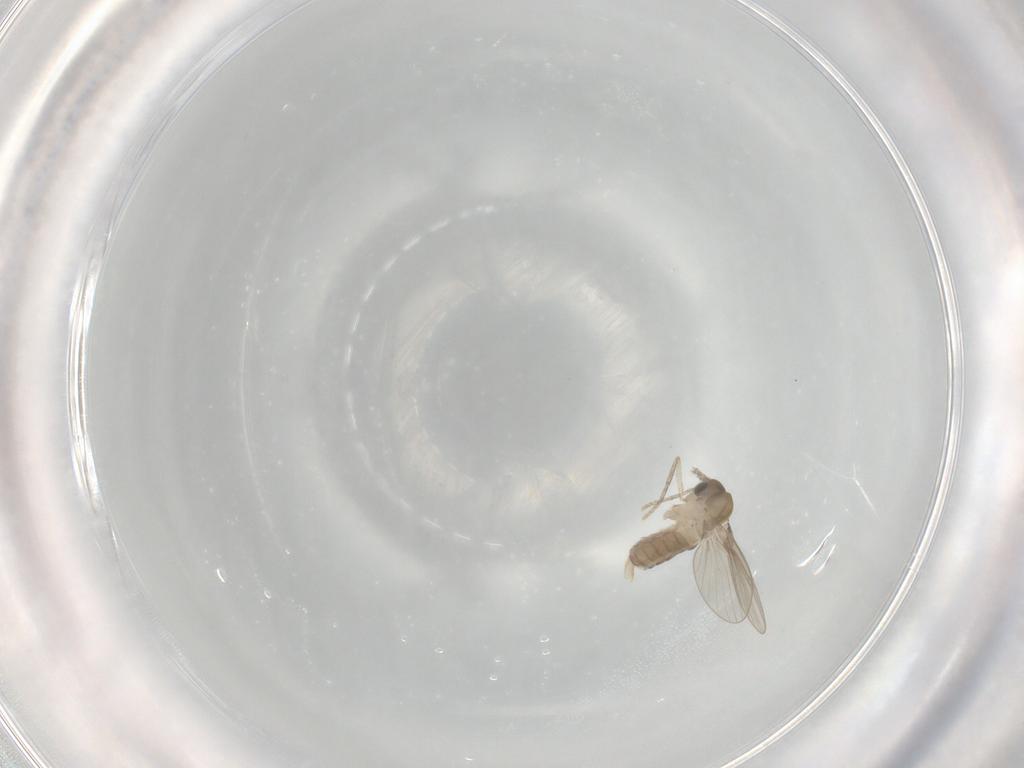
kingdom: Animalia
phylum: Arthropoda
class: Insecta
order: Diptera
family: Psychodidae
